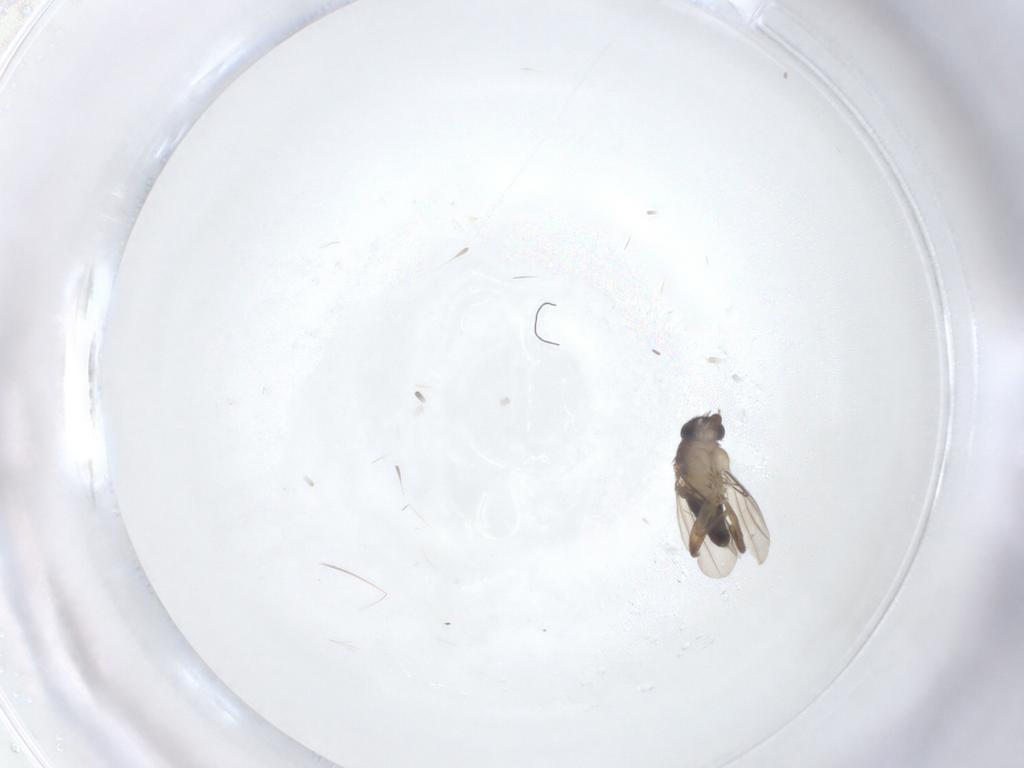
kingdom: Animalia
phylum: Arthropoda
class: Insecta
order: Diptera
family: Phoridae
